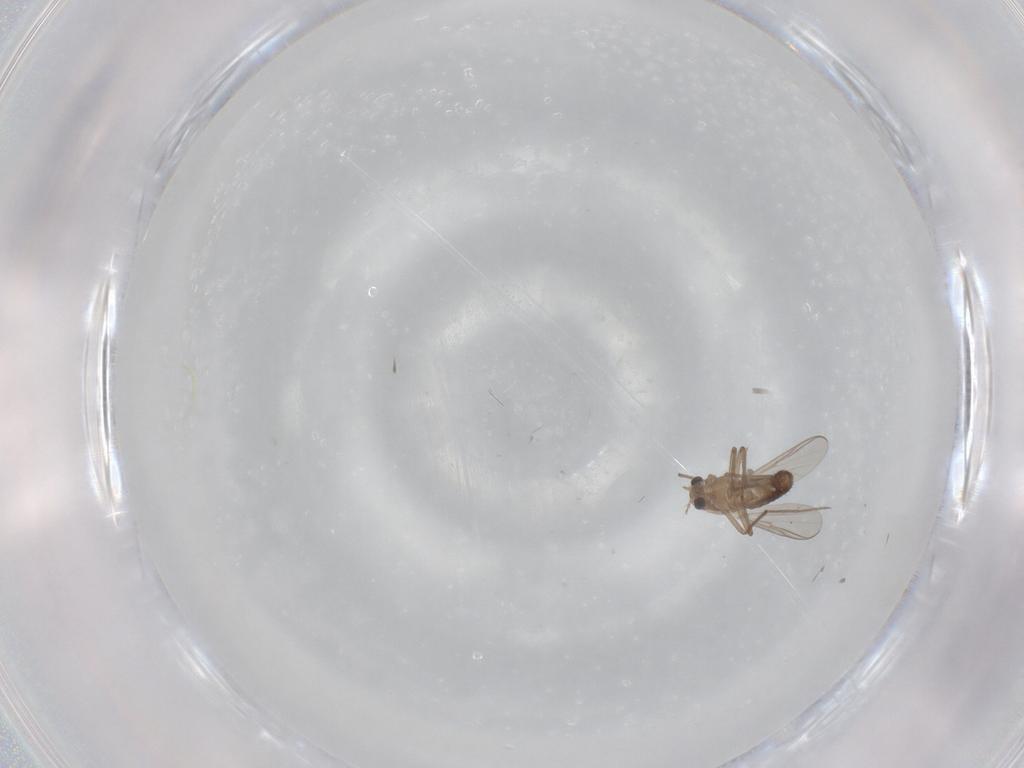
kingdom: Animalia
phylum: Arthropoda
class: Insecta
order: Diptera
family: Chironomidae
